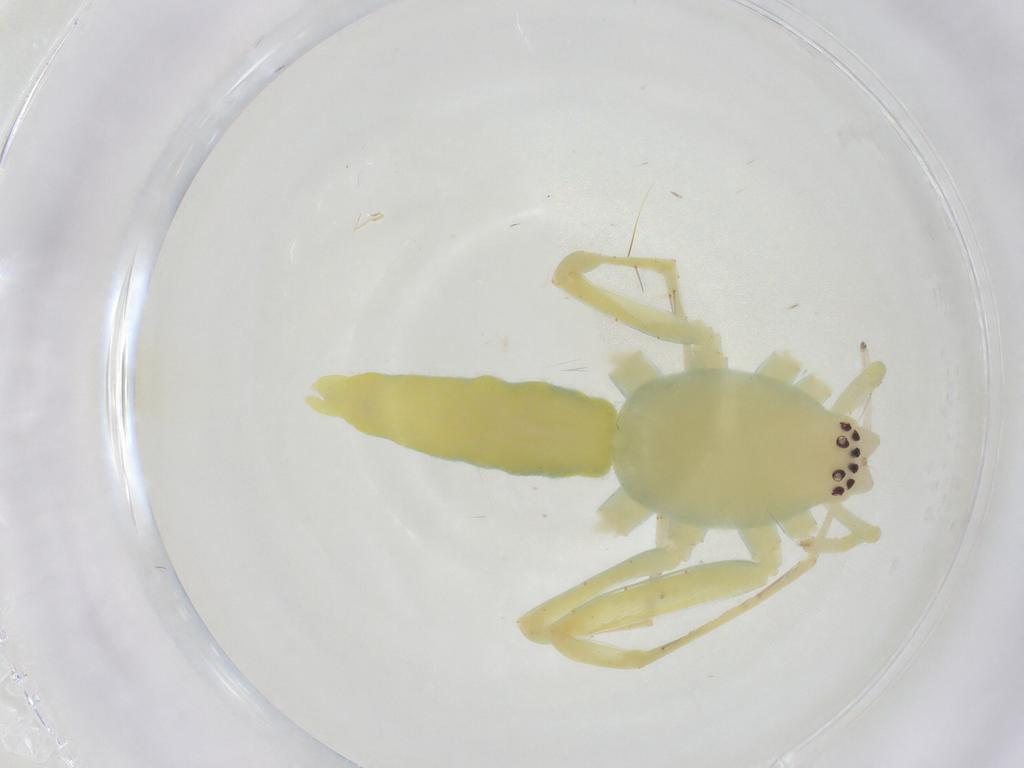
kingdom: Animalia
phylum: Arthropoda
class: Arachnida
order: Araneae
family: Clubionidae
